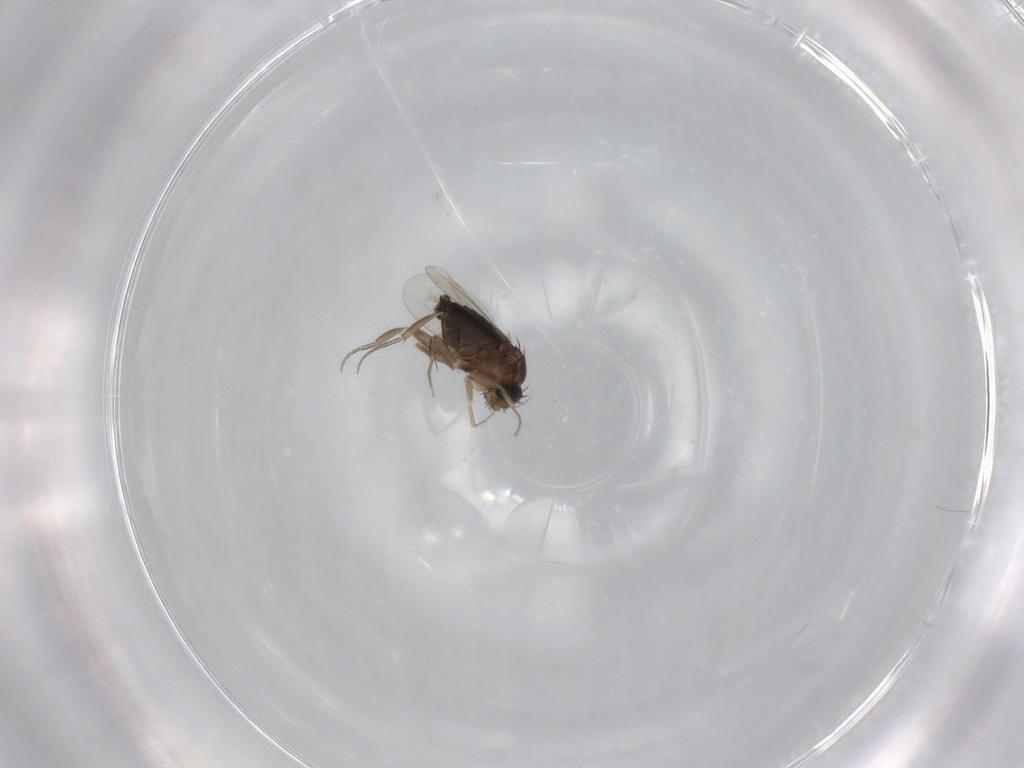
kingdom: Animalia
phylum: Arthropoda
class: Insecta
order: Diptera
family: Phoridae
